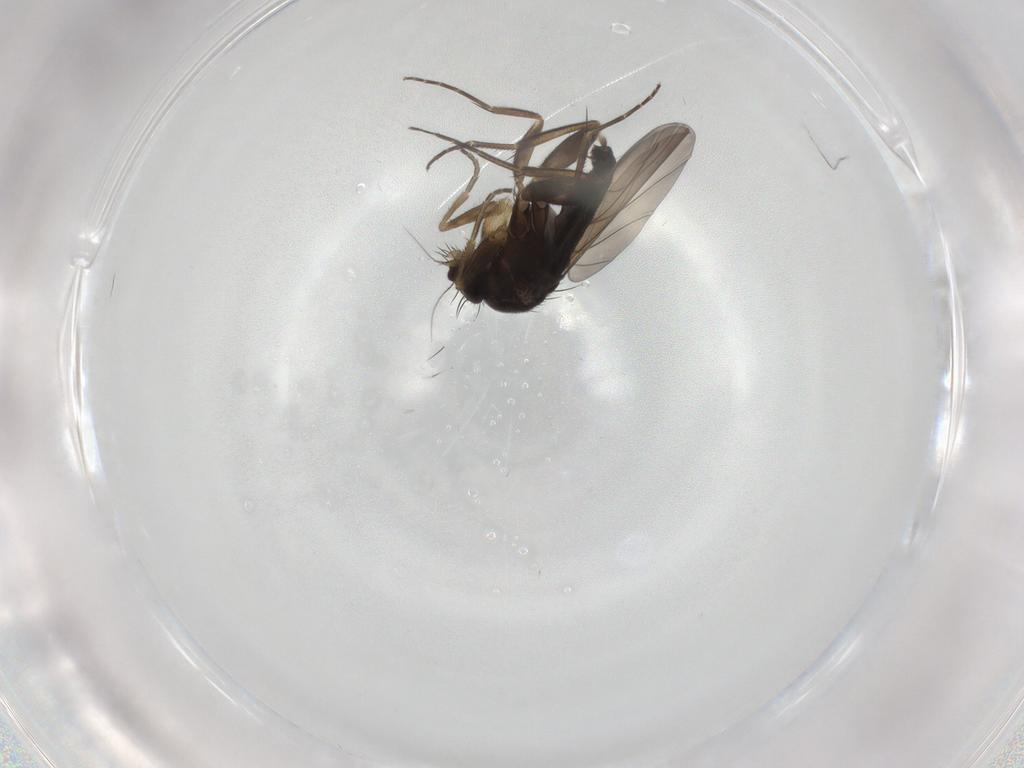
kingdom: Animalia
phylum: Arthropoda
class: Insecta
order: Diptera
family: Phoridae
